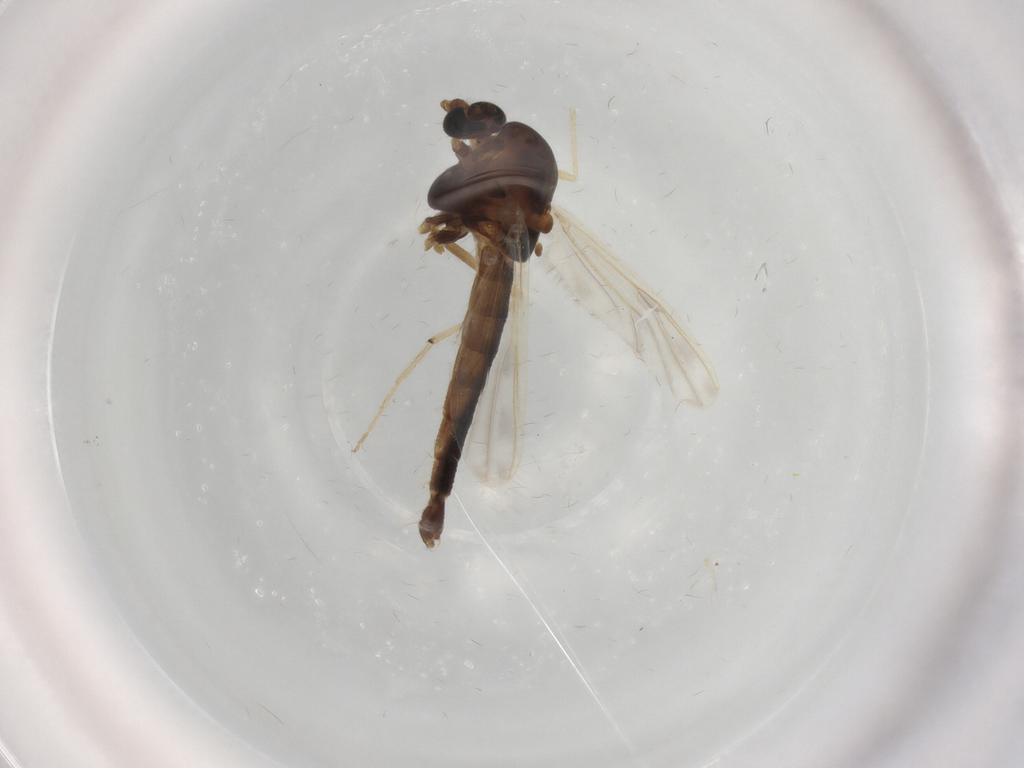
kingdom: Animalia
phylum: Arthropoda
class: Insecta
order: Diptera
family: Chironomidae
